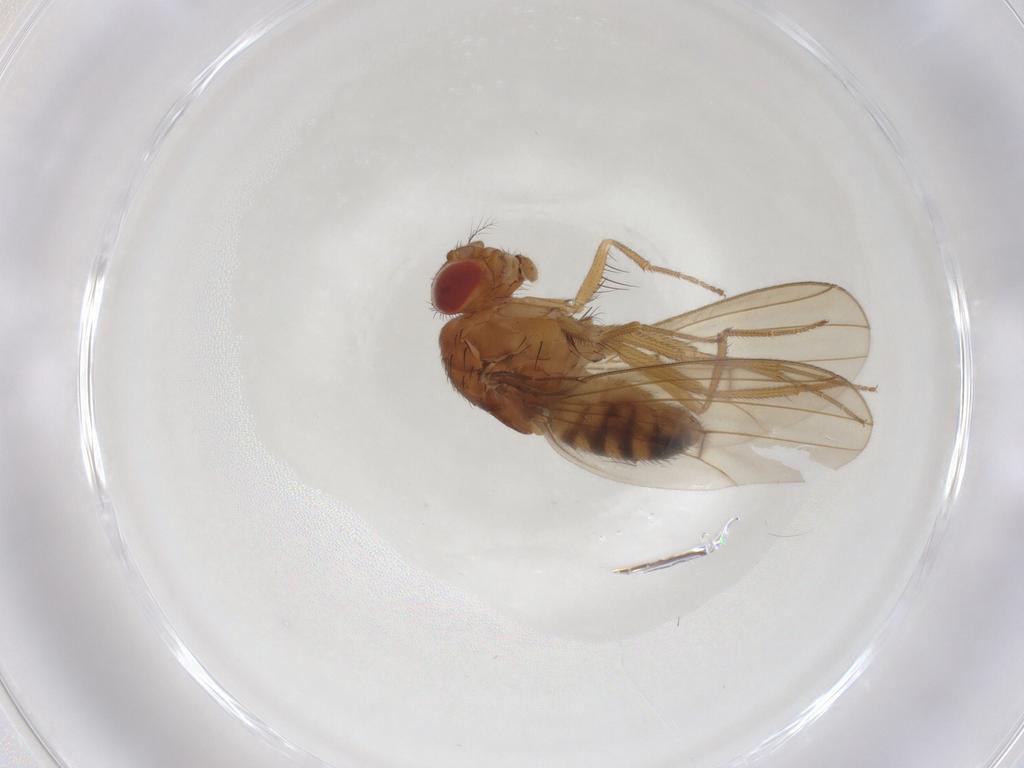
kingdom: Animalia
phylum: Arthropoda
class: Insecta
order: Diptera
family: Drosophilidae
